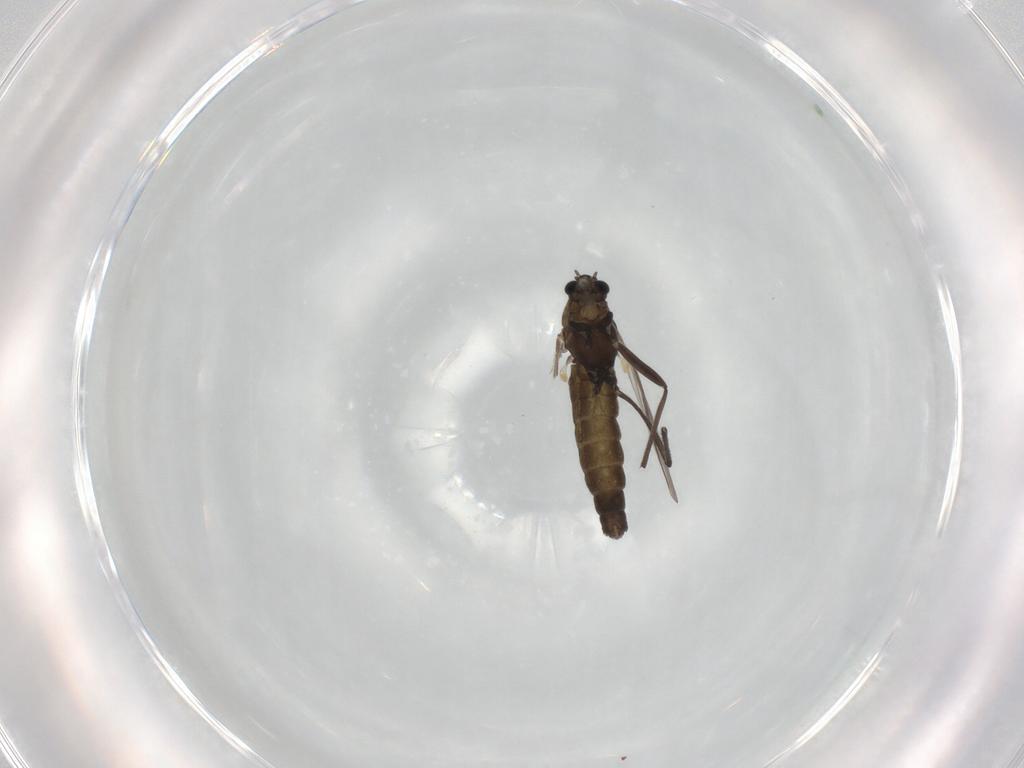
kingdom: Animalia
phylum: Arthropoda
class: Insecta
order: Diptera
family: Chironomidae
